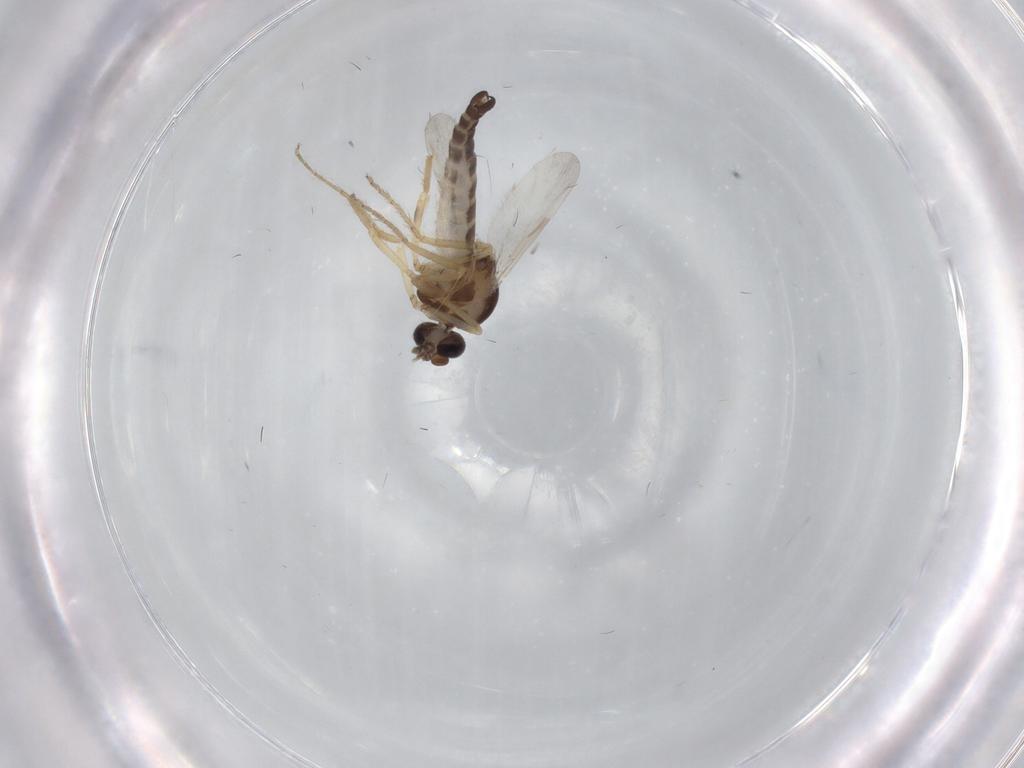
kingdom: Animalia
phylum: Arthropoda
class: Insecta
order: Diptera
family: Ceratopogonidae
